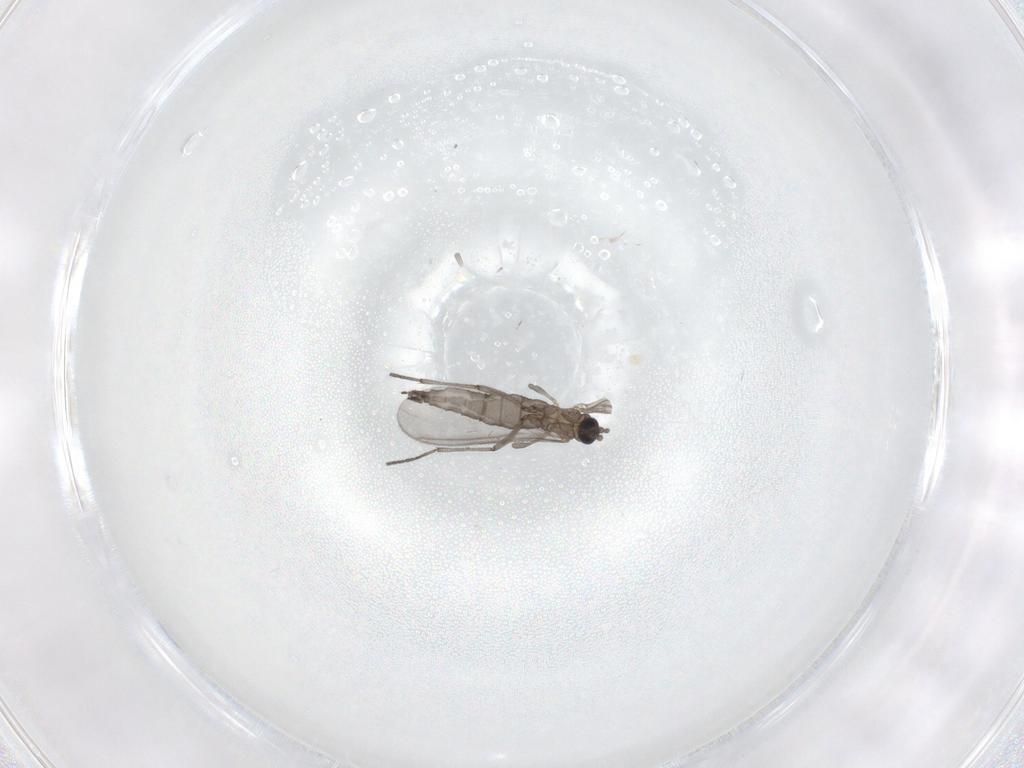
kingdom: Animalia
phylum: Arthropoda
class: Insecta
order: Diptera
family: Sciaridae
